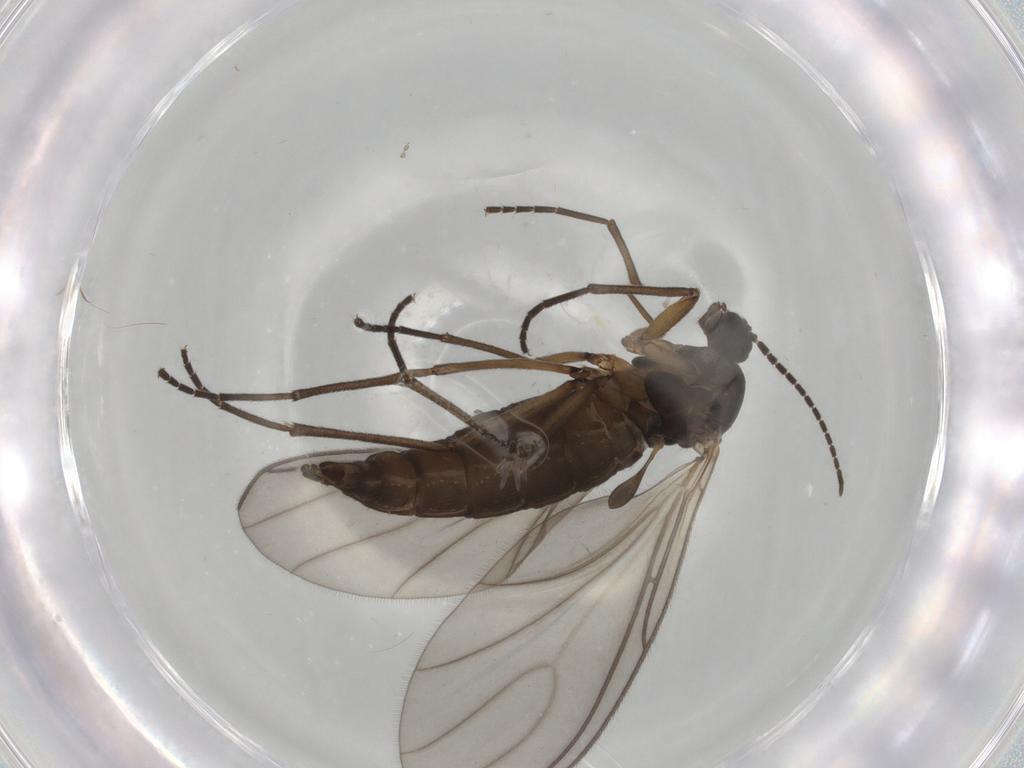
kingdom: Animalia
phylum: Arthropoda
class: Insecta
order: Diptera
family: Sciaridae
